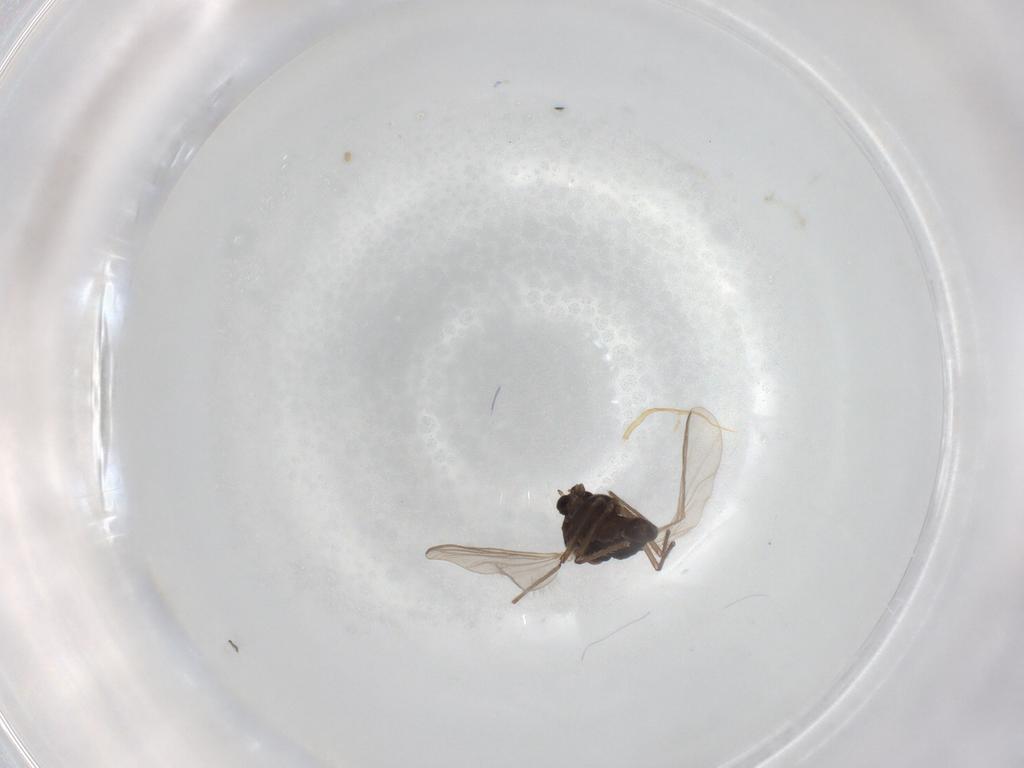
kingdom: Animalia
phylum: Arthropoda
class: Insecta
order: Diptera
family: Chironomidae
